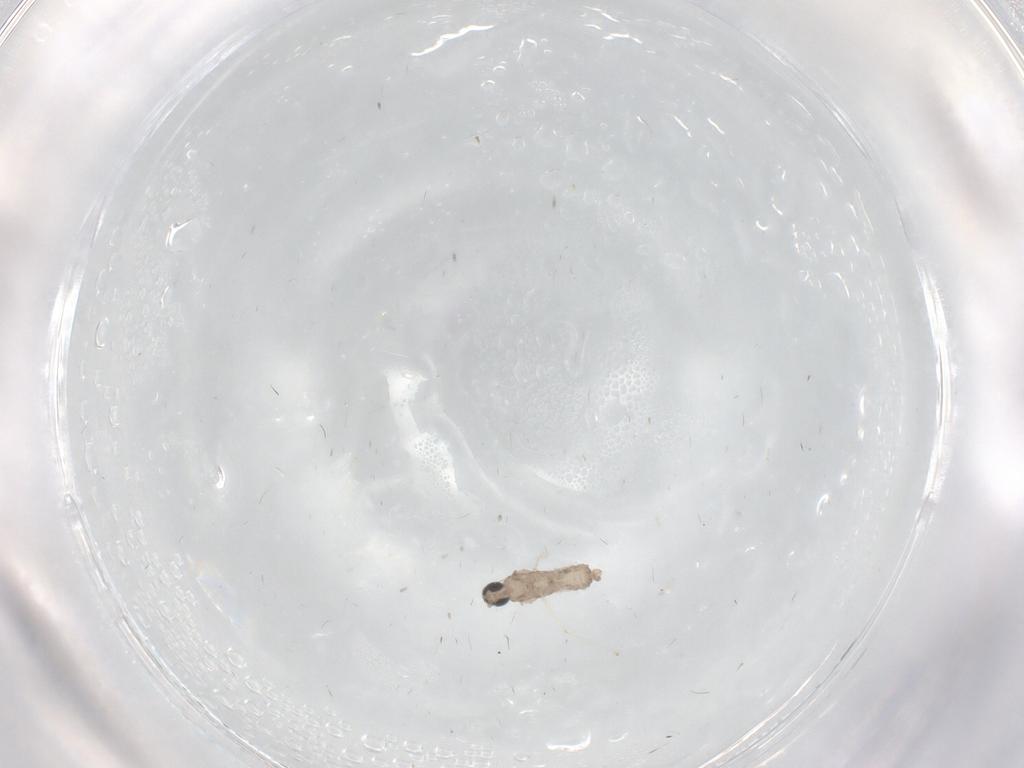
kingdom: Animalia
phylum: Arthropoda
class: Insecta
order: Diptera
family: Cecidomyiidae
